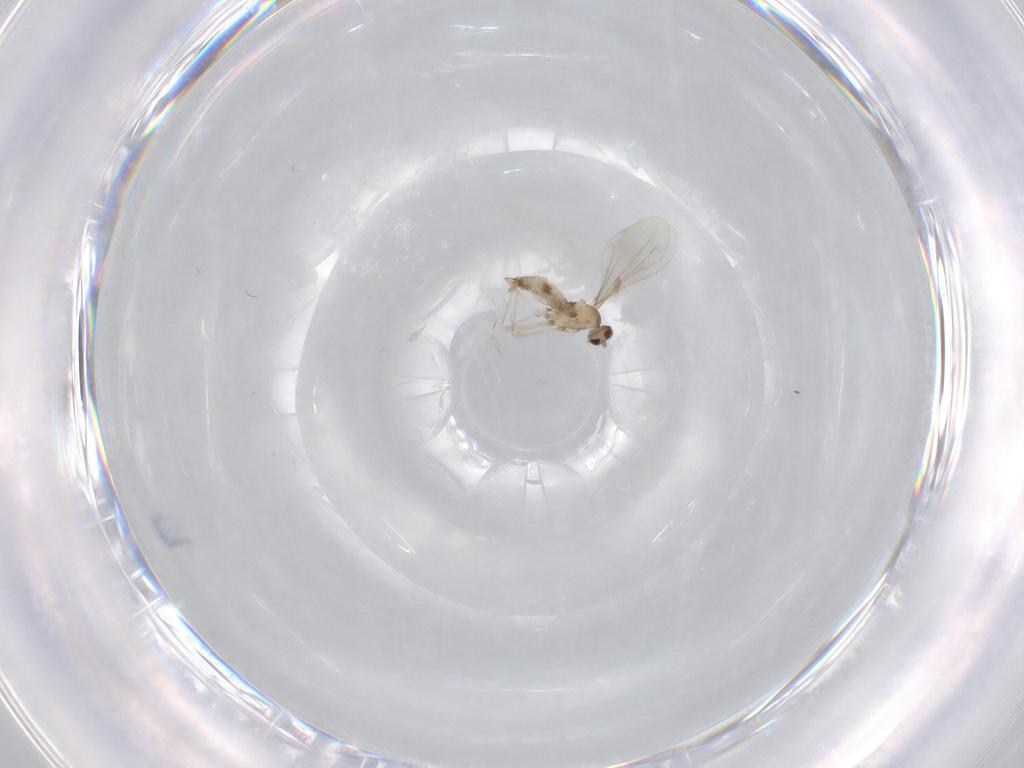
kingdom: Animalia
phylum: Arthropoda
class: Insecta
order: Diptera
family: Cecidomyiidae
